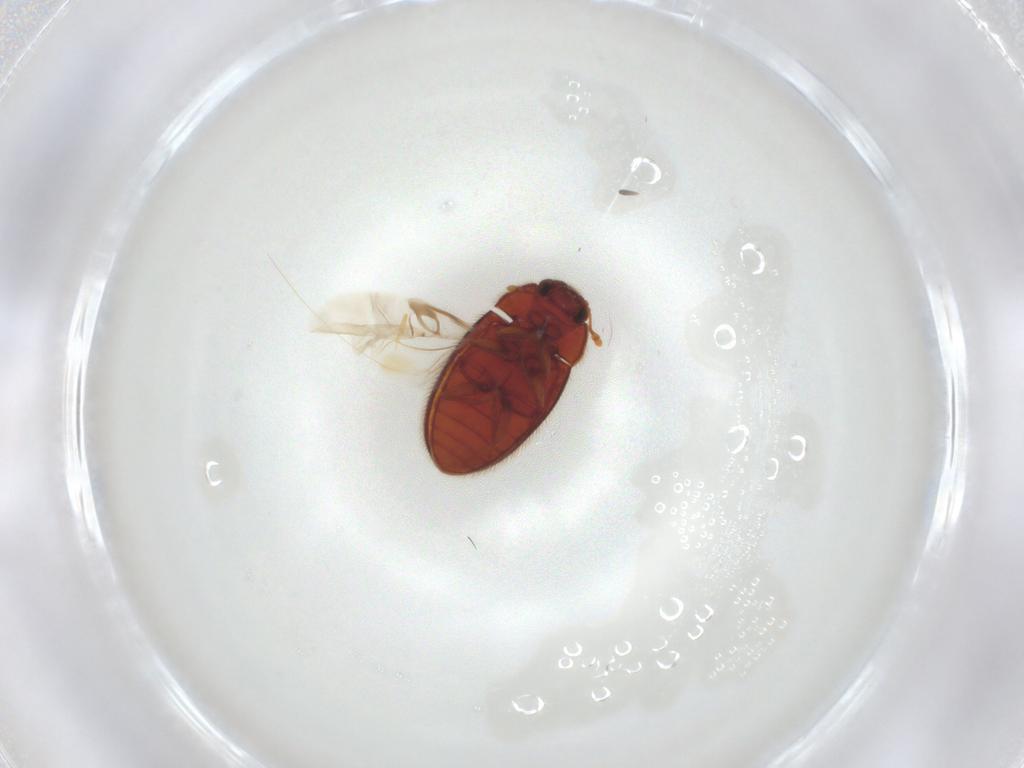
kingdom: Animalia
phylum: Arthropoda
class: Insecta
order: Coleoptera
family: Biphyllidae
